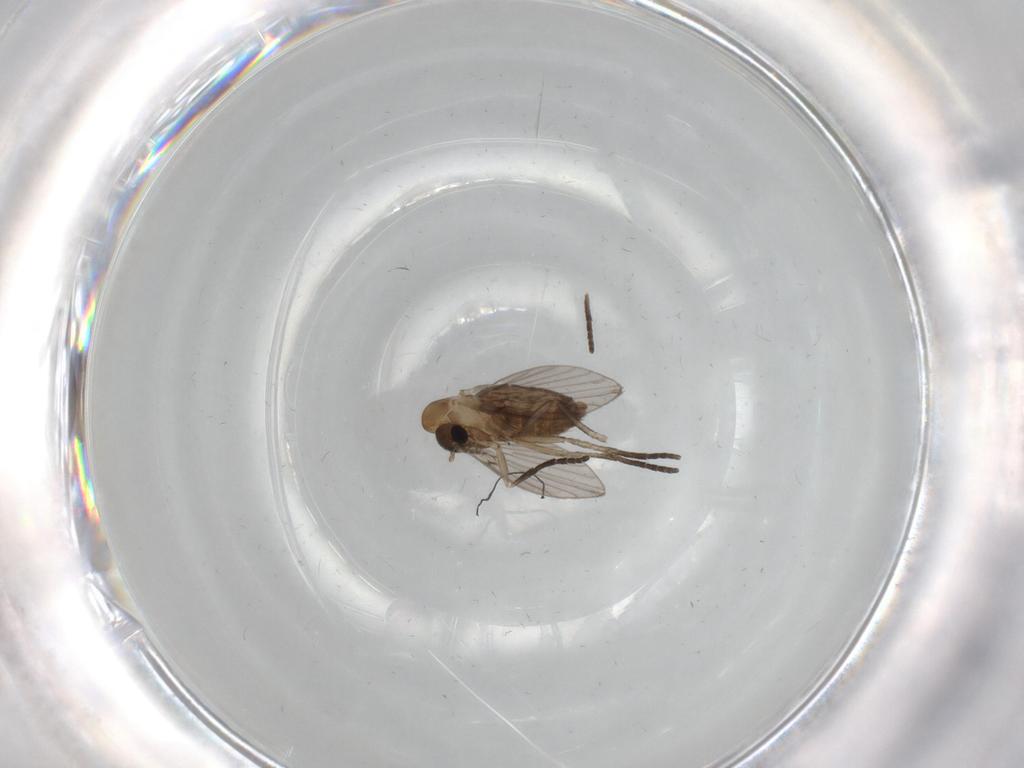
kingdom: Animalia
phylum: Arthropoda
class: Insecta
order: Diptera
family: Psychodidae
